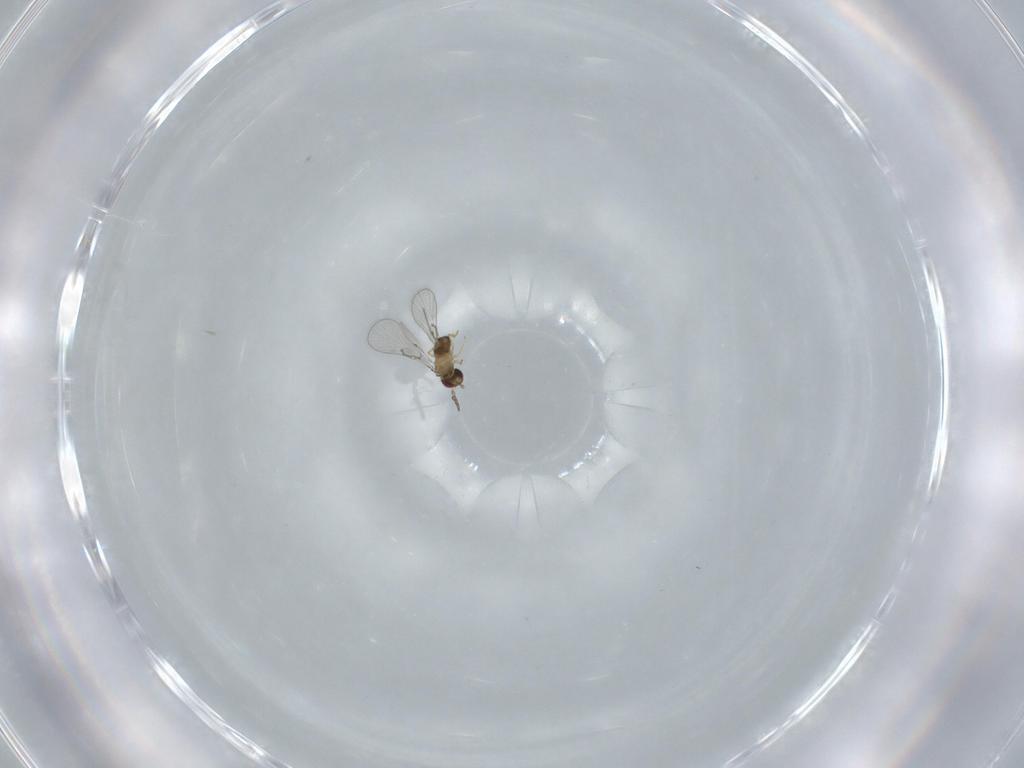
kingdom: Animalia
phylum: Arthropoda
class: Insecta
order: Hymenoptera
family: Trichogrammatidae
